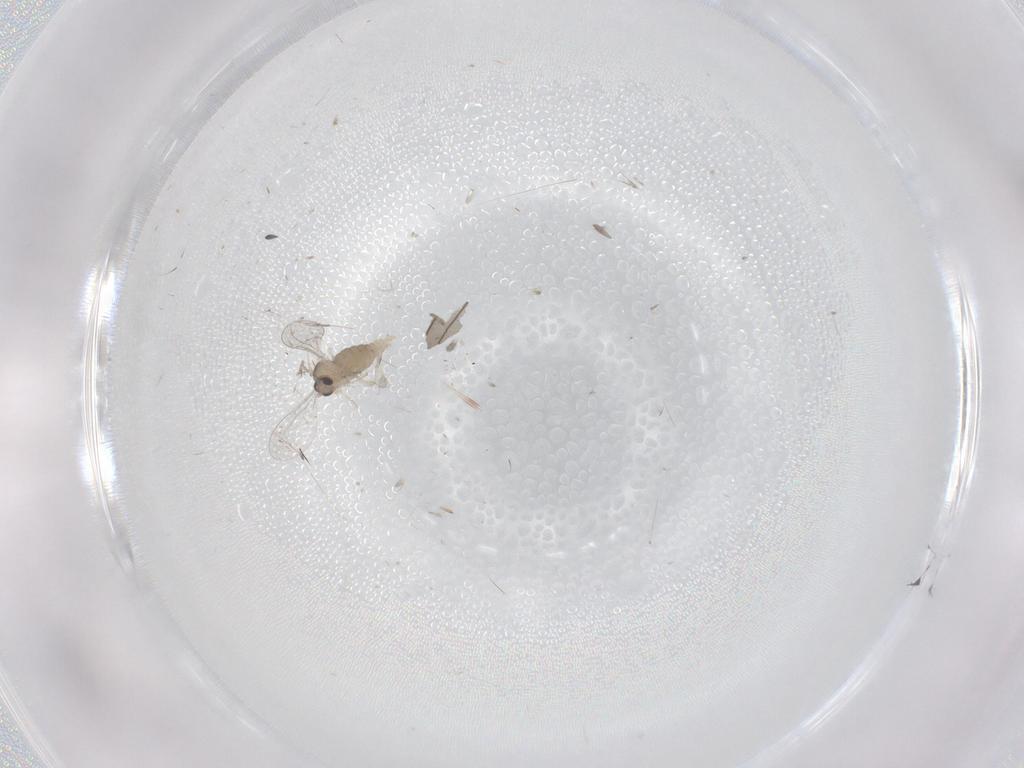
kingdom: Animalia
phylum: Arthropoda
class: Insecta
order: Diptera
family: Cecidomyiidae
